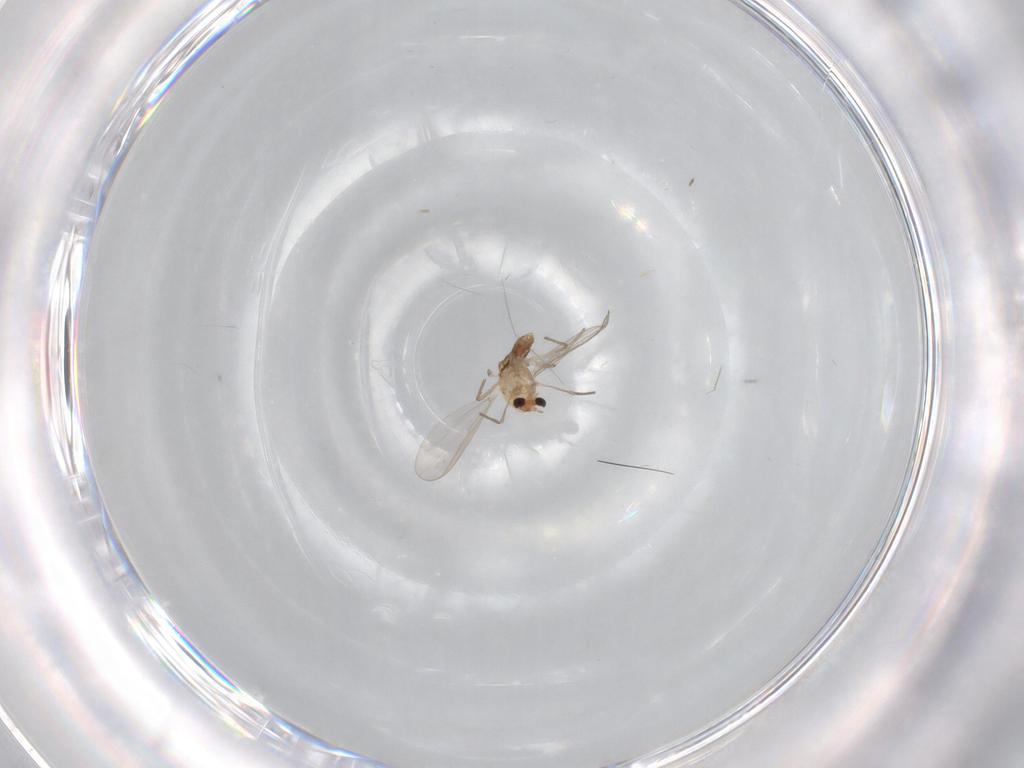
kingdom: Animalia
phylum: Arthropoda
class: Insecta
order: Diptera
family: Chironomidae
